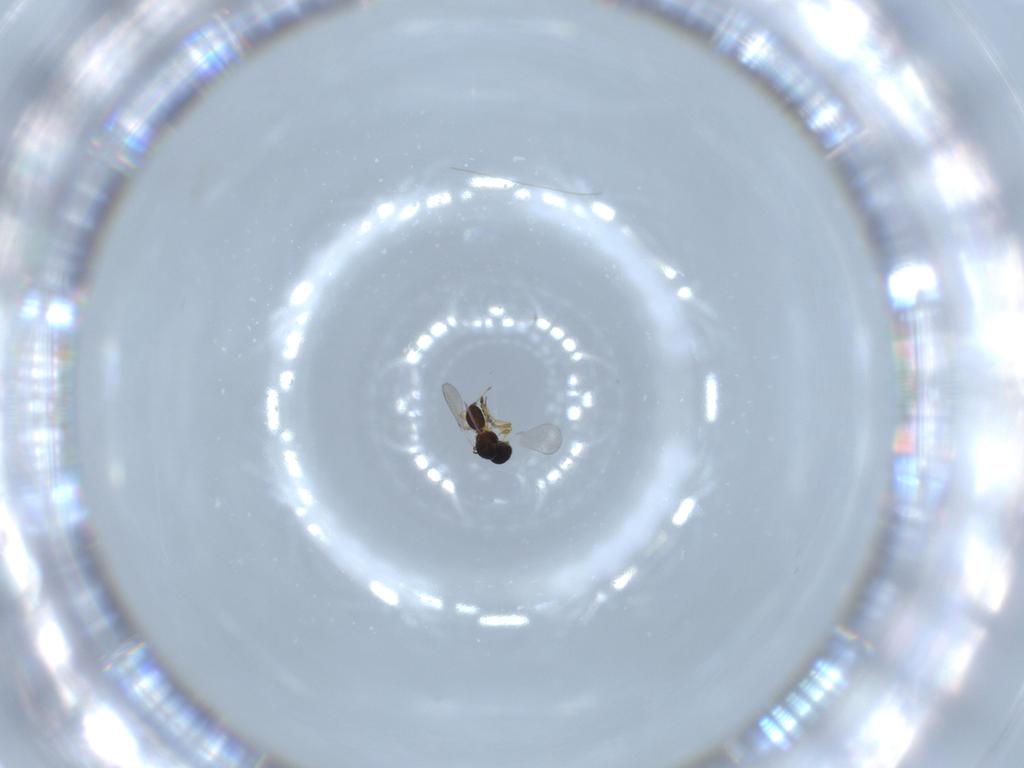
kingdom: Animalia
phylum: Arthropoda
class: Insecta
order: Hymenoptera
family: Platygastridae
